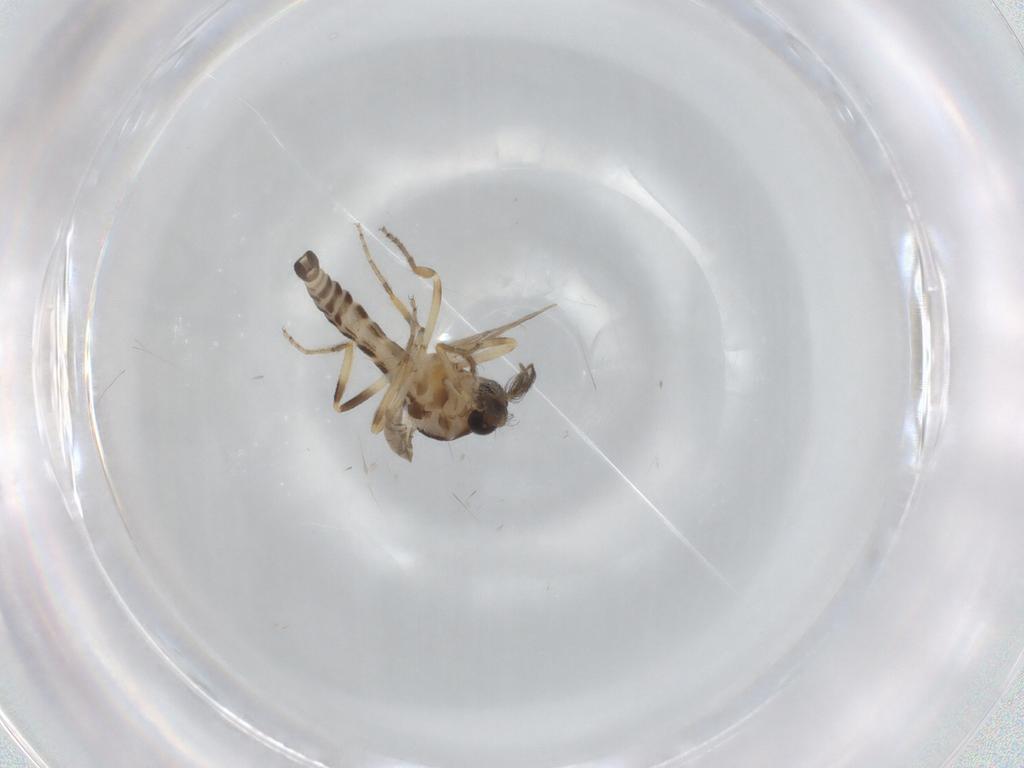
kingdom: Animalia
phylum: Arthropoda
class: Insecta
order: Diptera
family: Ceratopogonidae
